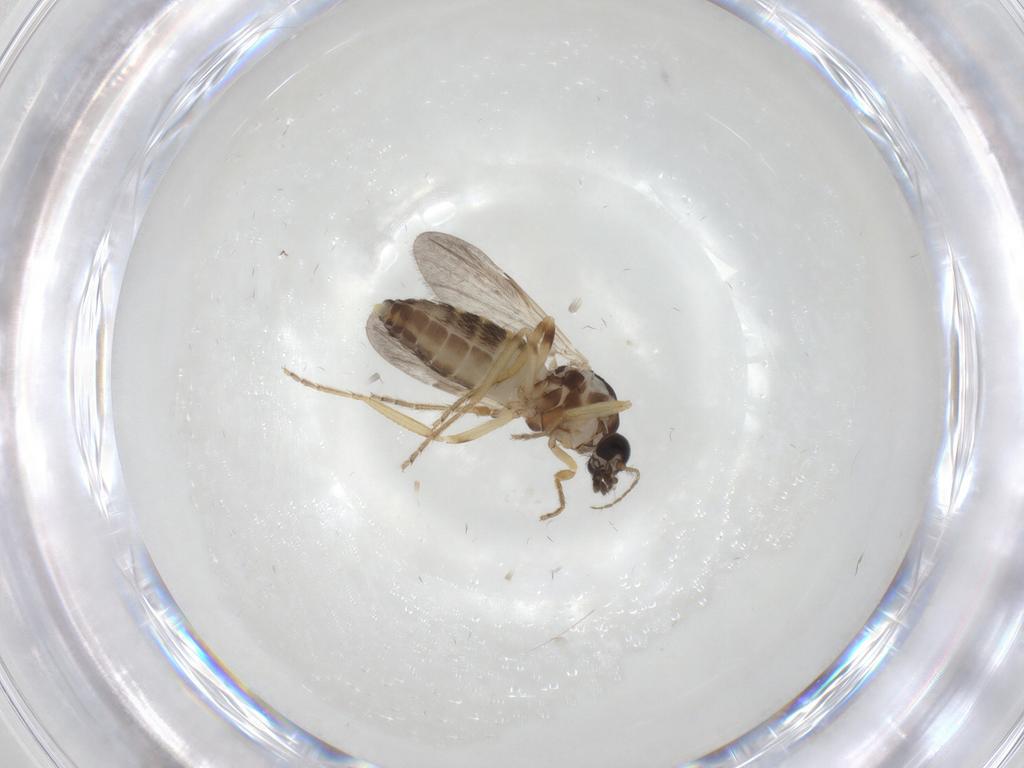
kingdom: Animalia
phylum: Arthropoda
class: Insecta
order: Diptera
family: Ceratopogonidae
